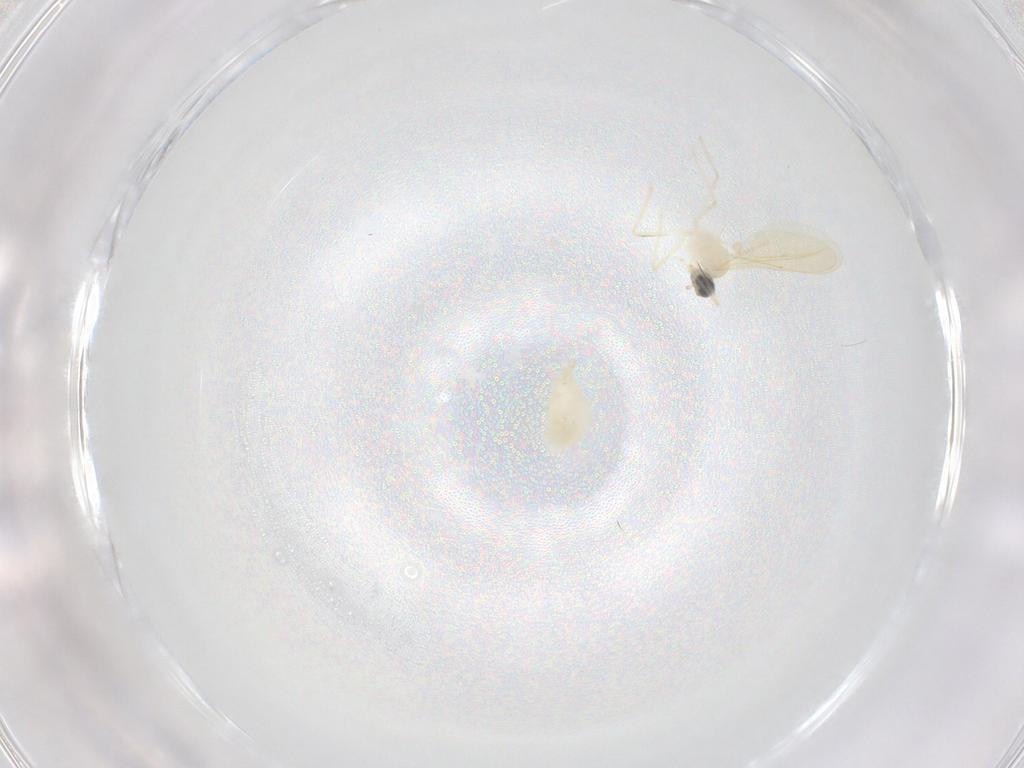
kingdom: Animalia
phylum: Arthropoda
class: Insecta
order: Diptera
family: Cecidomyiidae
